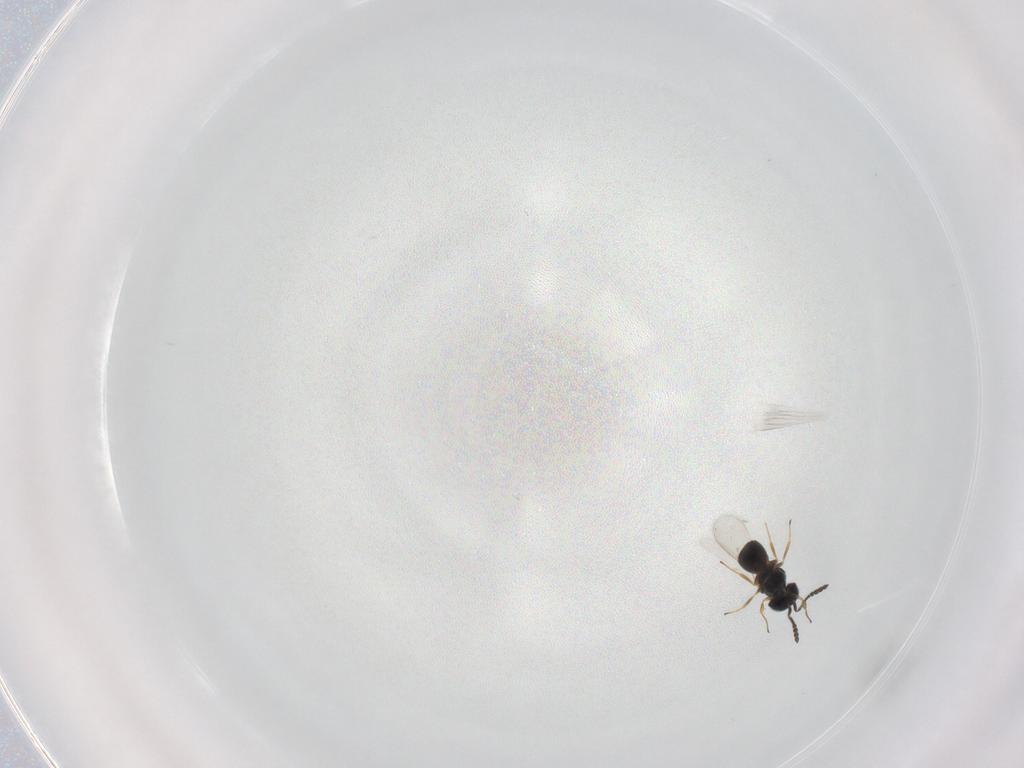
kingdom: Animalia
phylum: Arthropoda
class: Insecta
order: Hymenoptera
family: Scelionidae
